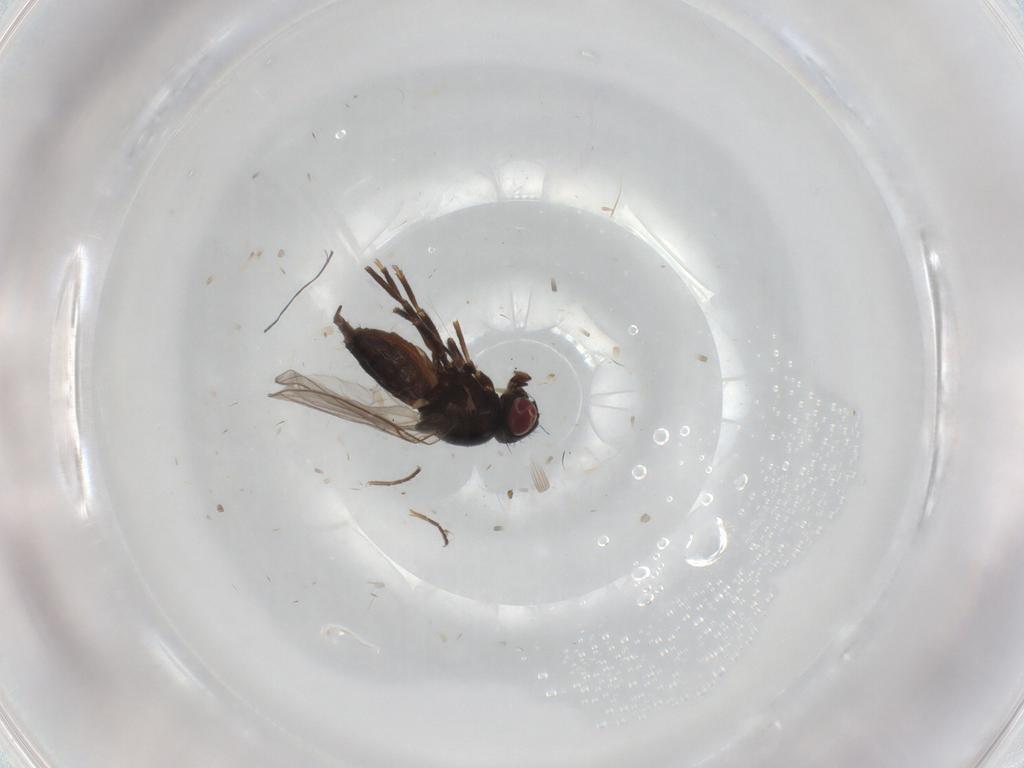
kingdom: Animalia
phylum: Arthropoda
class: Insecta
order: Diptera
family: Chloropidae
